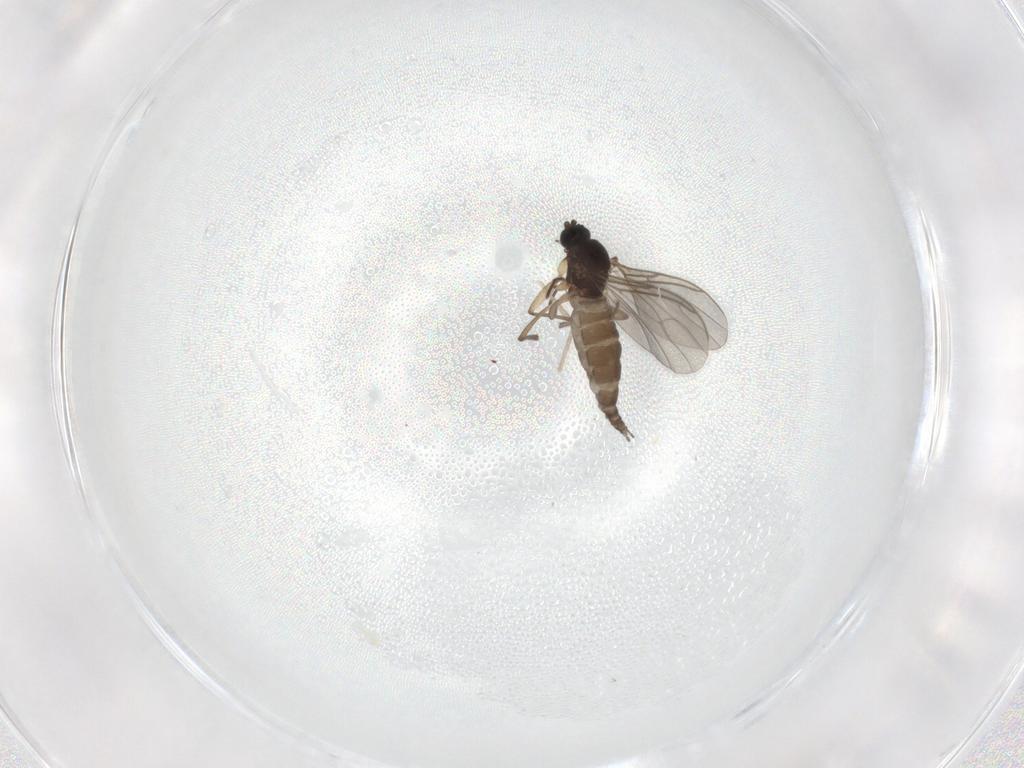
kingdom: Animalia
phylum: Arthropoda
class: Insecta
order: Diptera
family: Sciaridae
